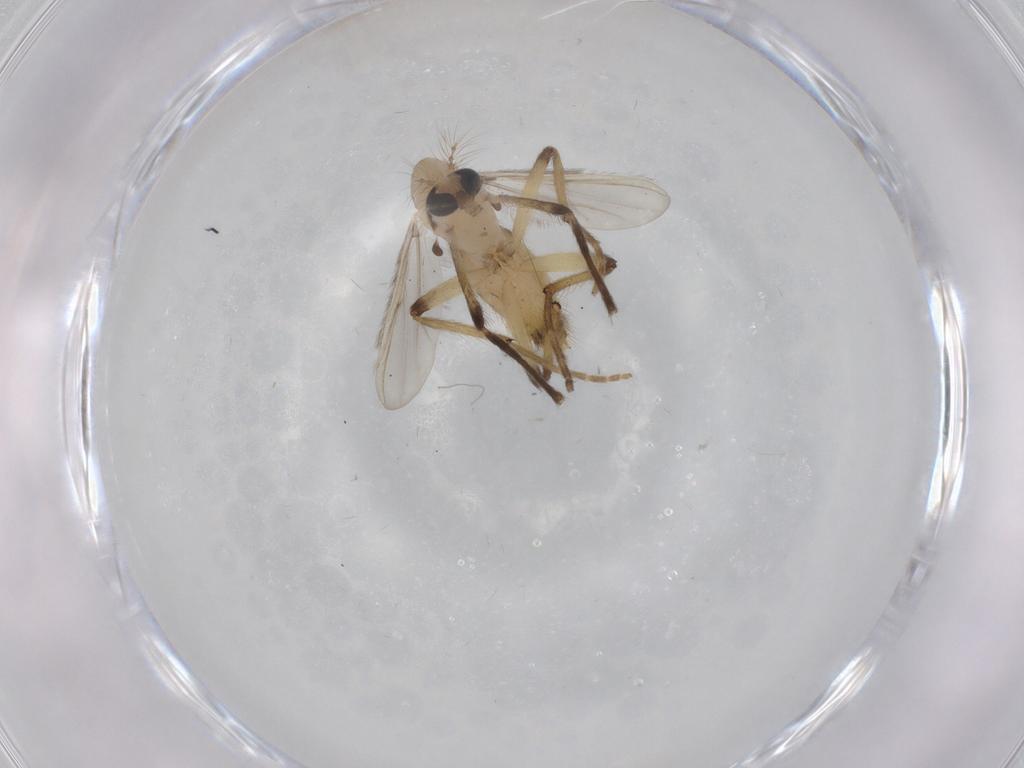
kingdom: Animalia
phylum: Arthropoda
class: Insecta
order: Diptera
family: Chironomidae
